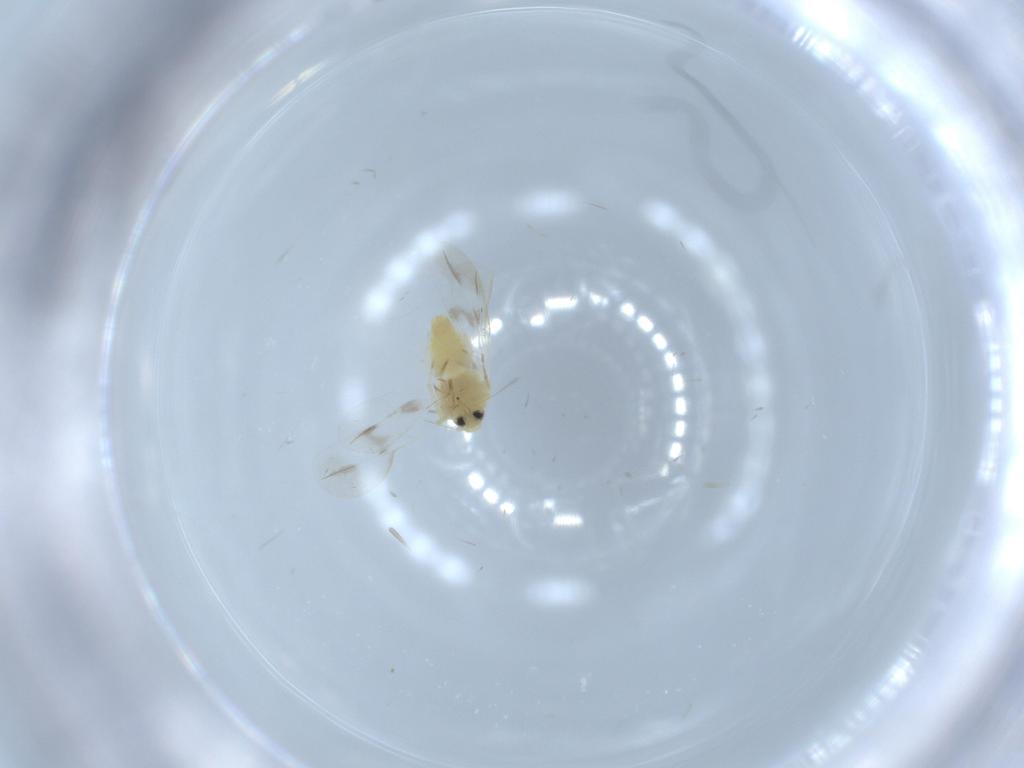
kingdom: Animalia
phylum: Arthropoda
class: Insecta
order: Hemiptera
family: Aleyrodidae
